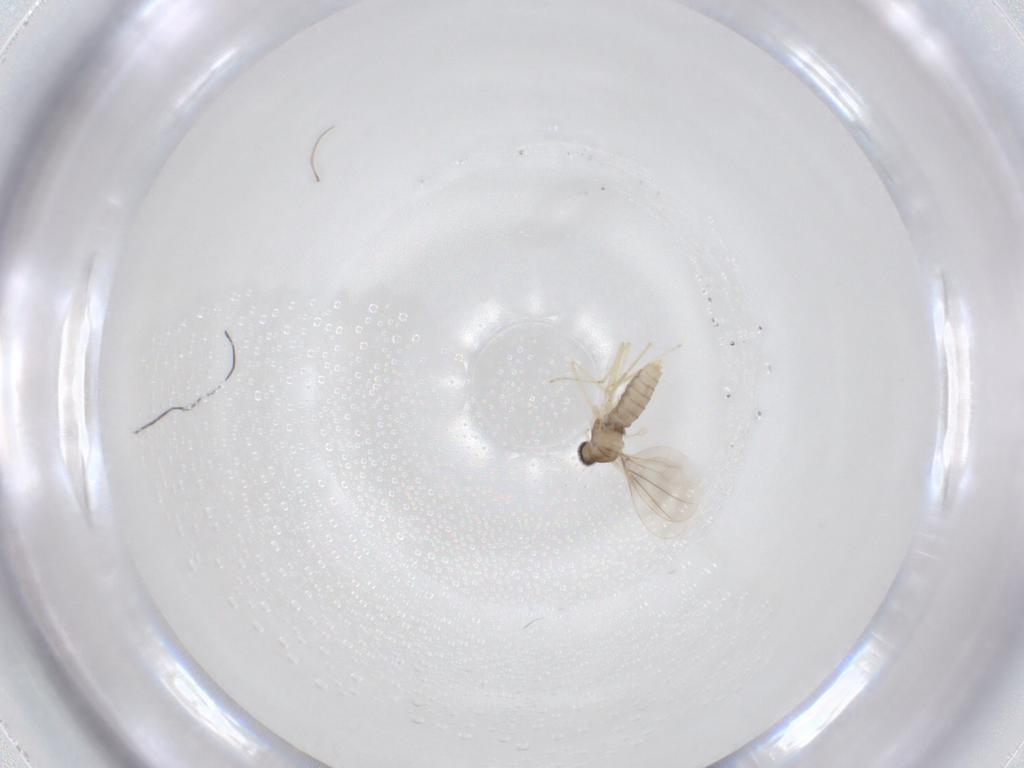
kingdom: Animalia
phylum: Arthropoda
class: Insecta
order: Diptera
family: Cecidomyiidae
